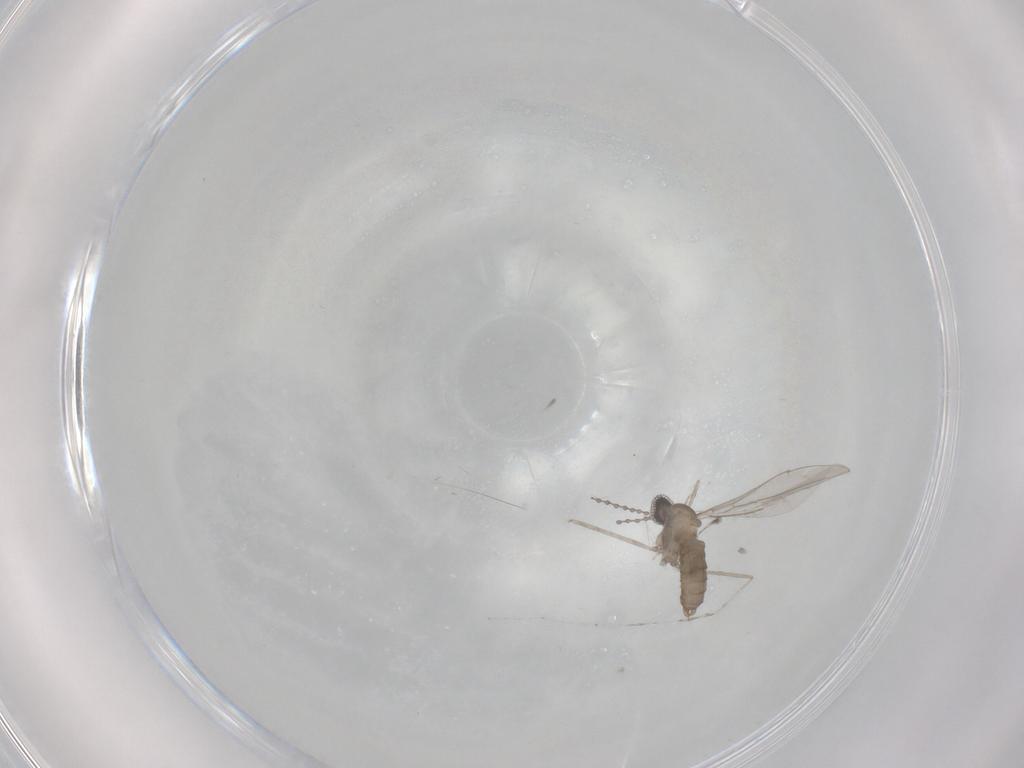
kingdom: Animalia
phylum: Arthropoda
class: Insecta
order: Diptera
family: Cecidomyiidae
